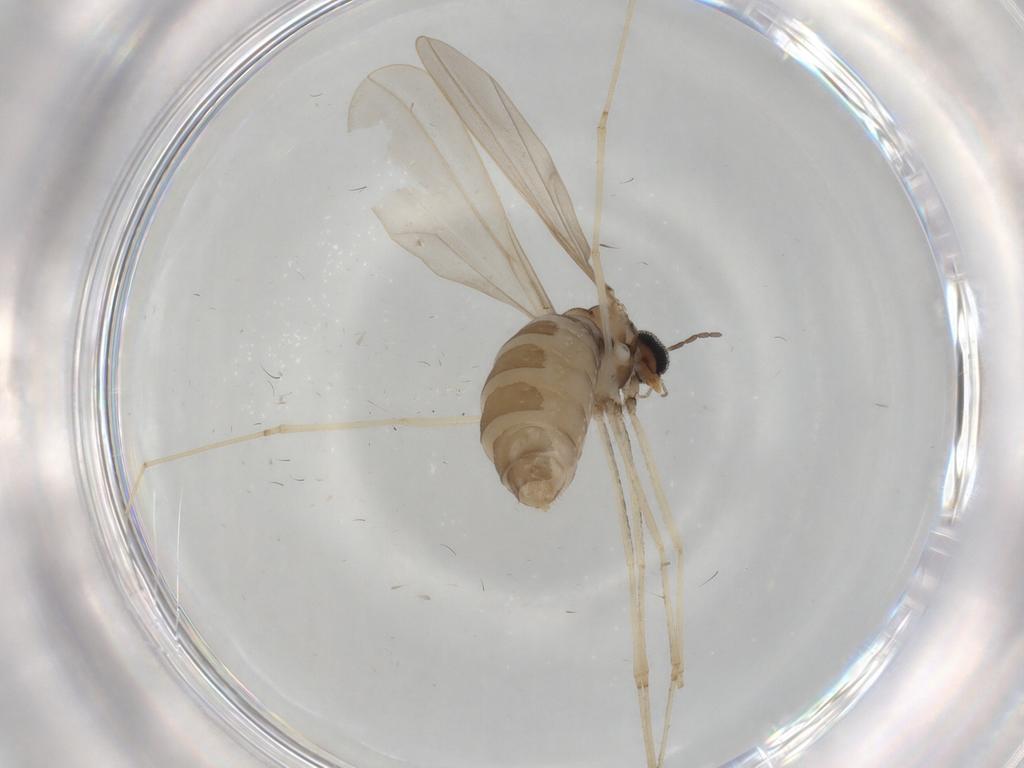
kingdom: Animalia
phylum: Arthropoda
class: Insecta
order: Diptera
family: Cecidomyiidae
